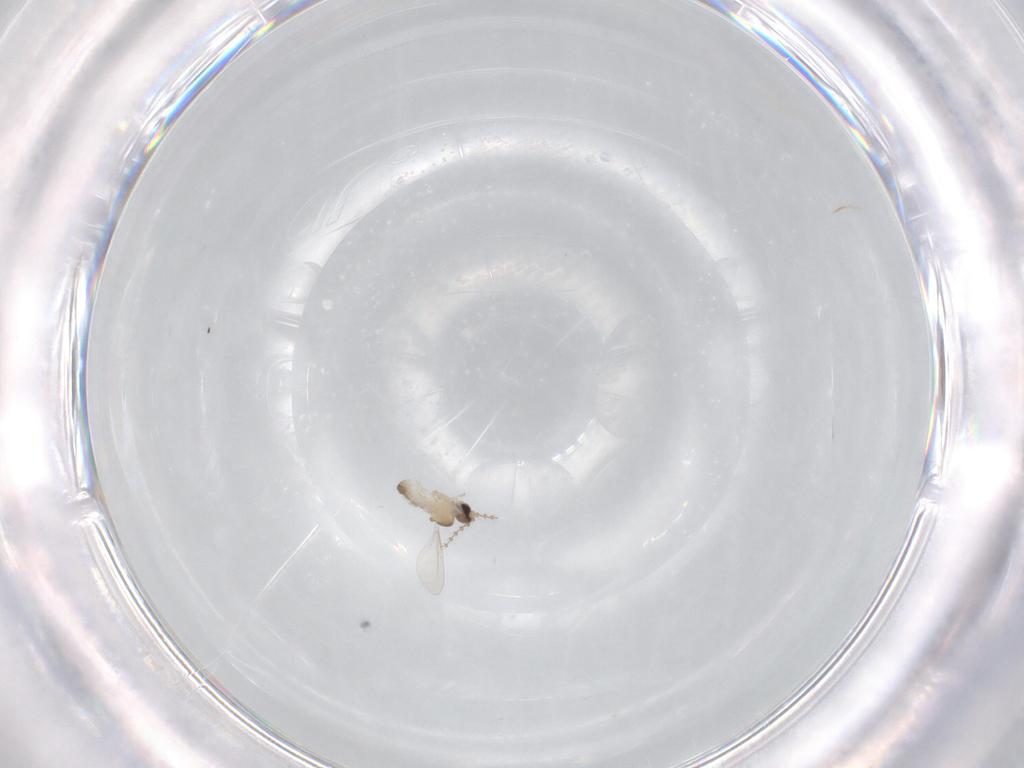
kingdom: Animalia
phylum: Arthropoda
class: Insecta
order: Diptera
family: Cecidomyiidae
